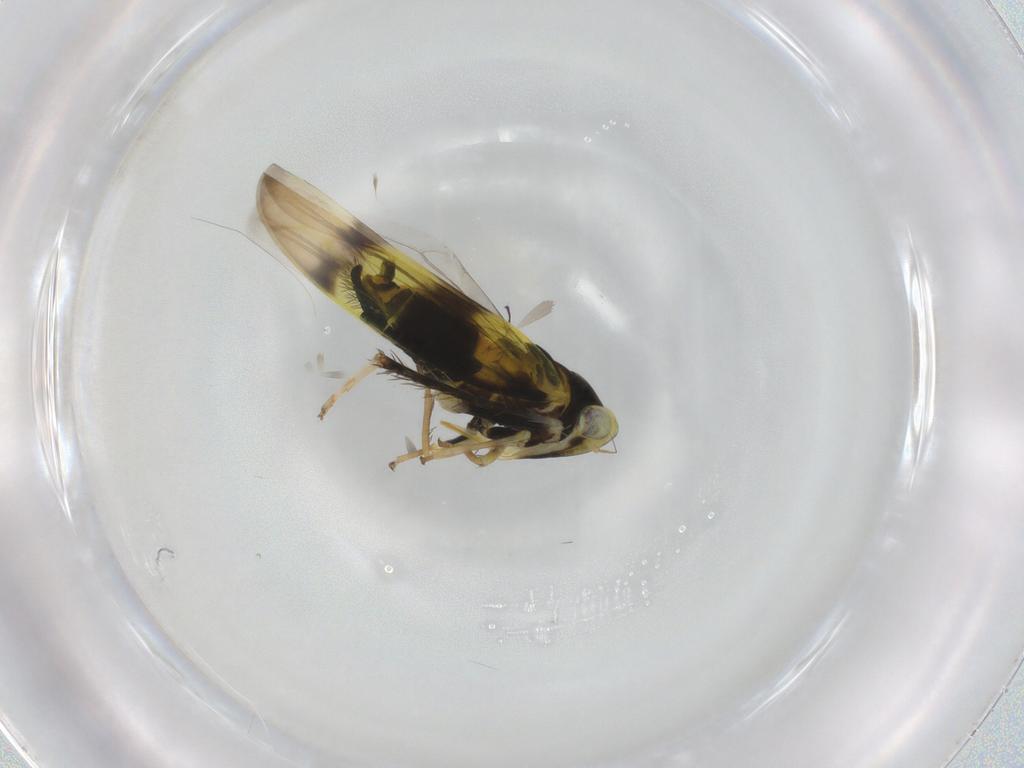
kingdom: Animalia
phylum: Arthropoda
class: Insecta
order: Hemiptera
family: Cicadellidae
